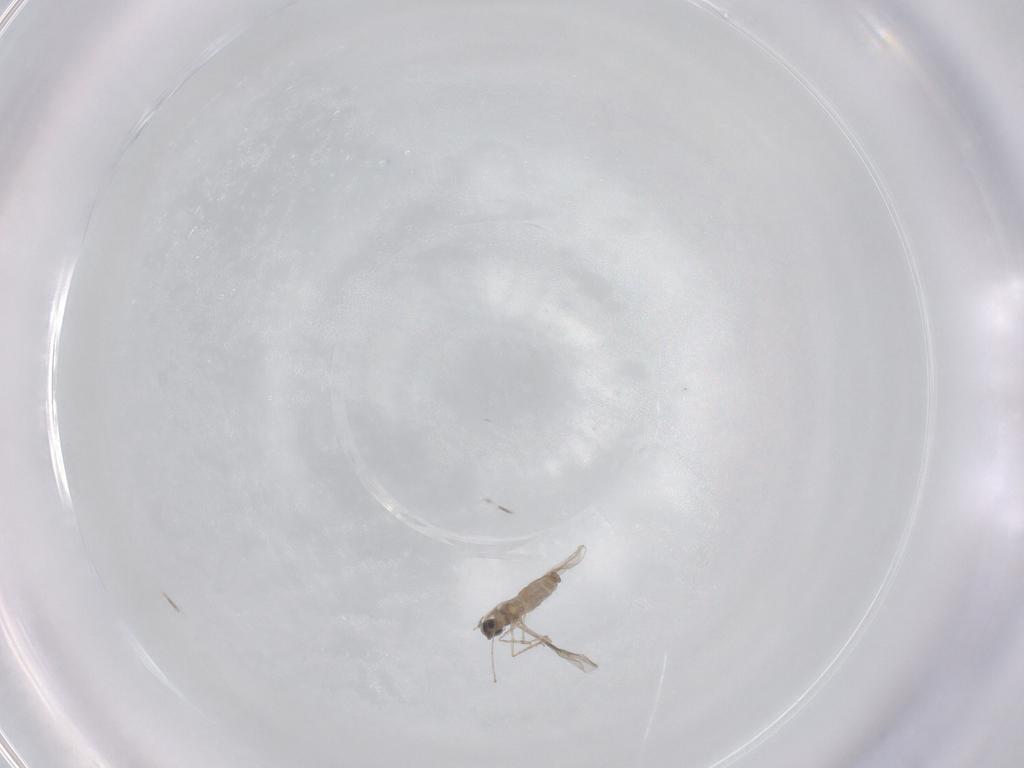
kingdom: Animalia
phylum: Arthropoda
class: Insecta
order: Diptera
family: Cecidomyiidae
